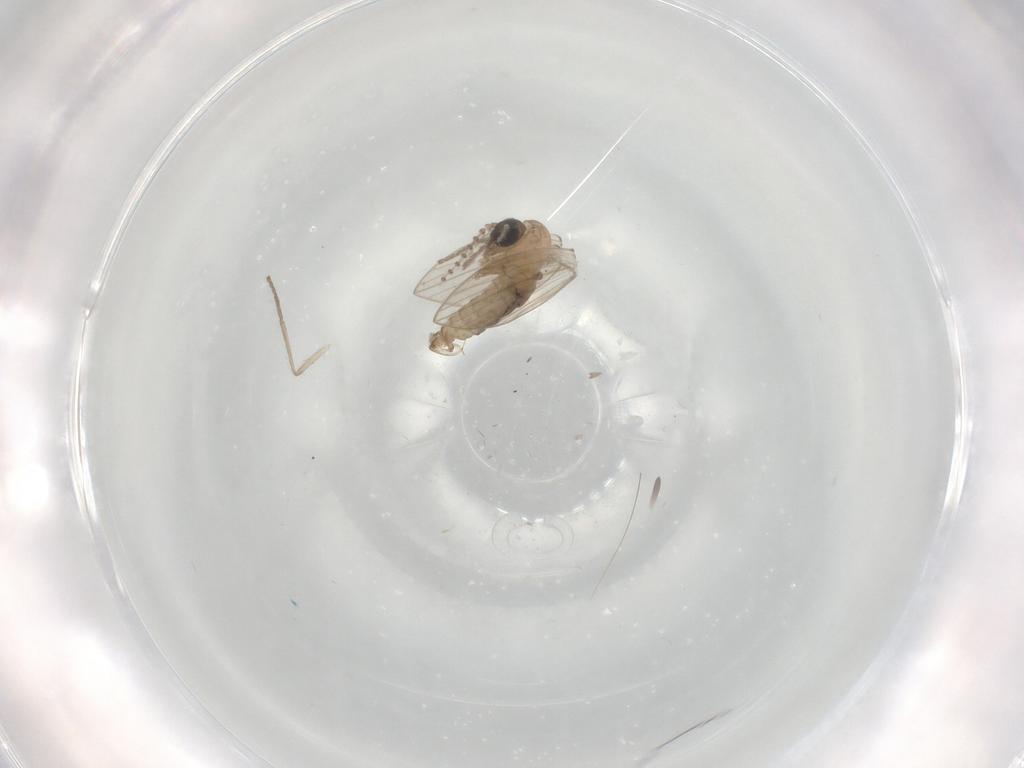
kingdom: Animalia
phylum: Arthropoda
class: Insecta
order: Diptera
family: Psychodidae
